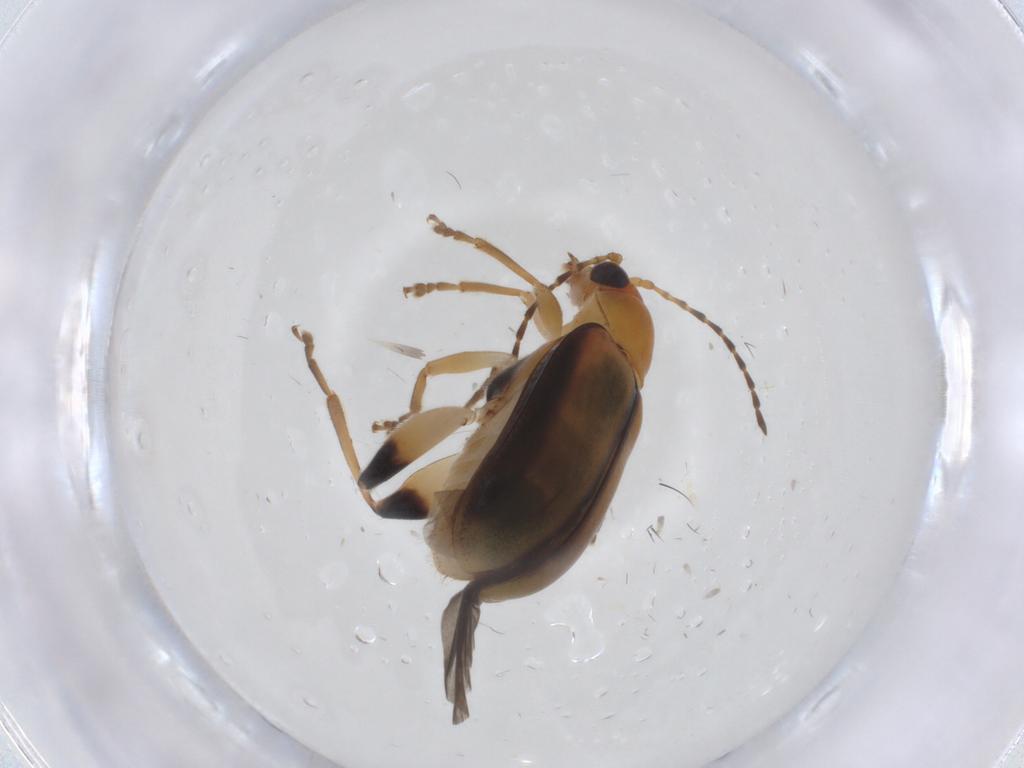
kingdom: Animalia
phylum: Arthropoda
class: Insecta
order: Coleoptera
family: Chrysomelidae
